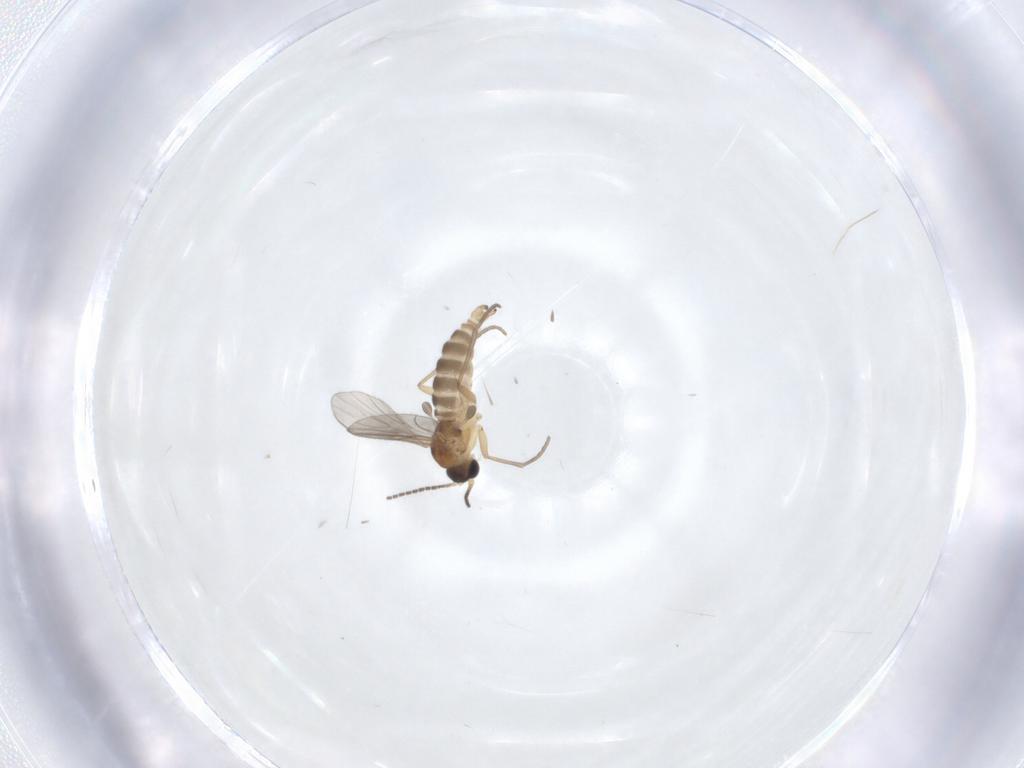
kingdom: Animalia
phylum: Arthropoda
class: Insecta
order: Diptera
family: Sciaridae
